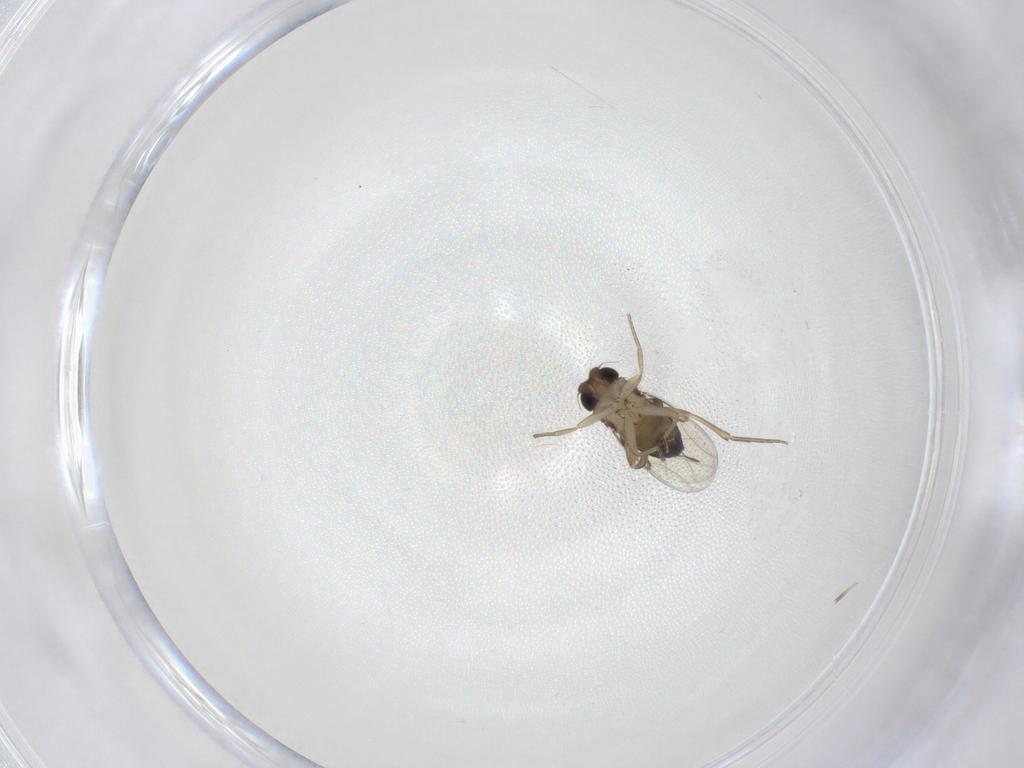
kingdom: Animalia
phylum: Arthropoda
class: Insecta
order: Diptera
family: Phoridae
